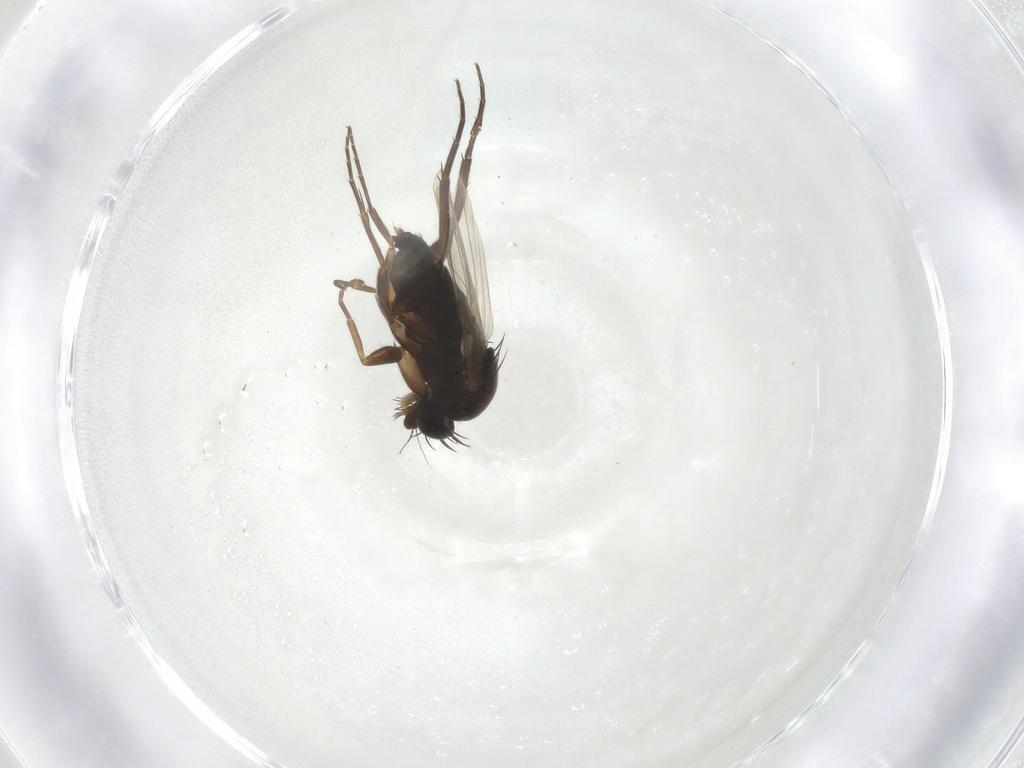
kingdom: Animalia
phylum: Arthropoda
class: Insecta
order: Diptera
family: Phoridae
